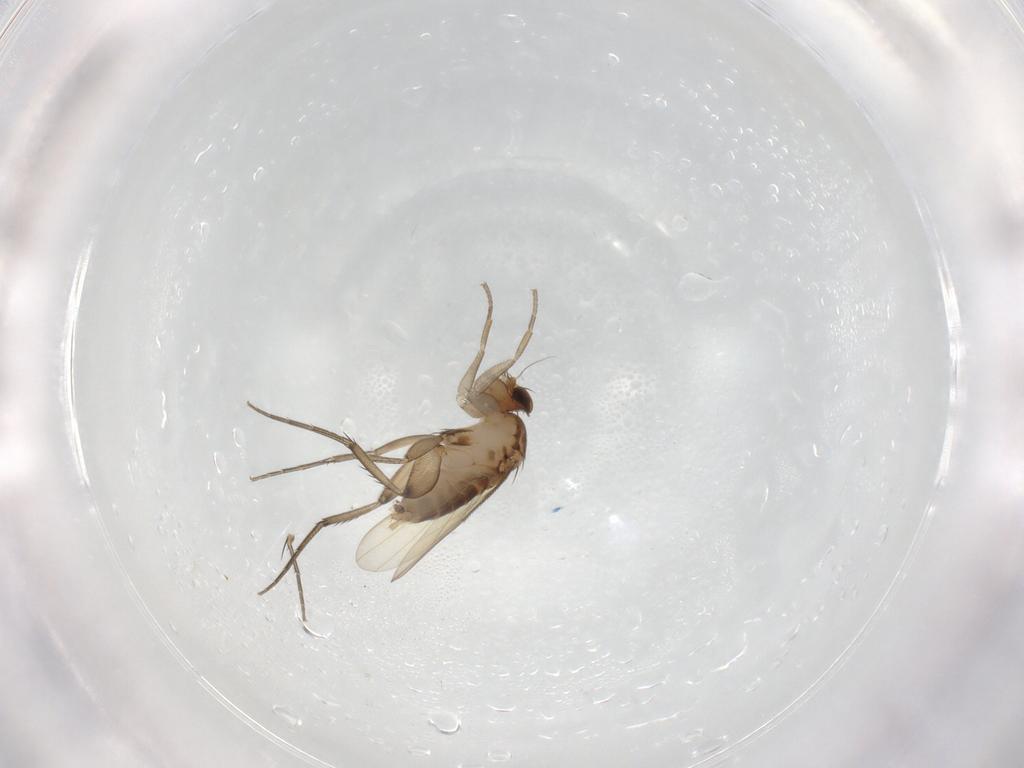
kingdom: Animalia
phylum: Arthropoda
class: Insecta
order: Diptera
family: Phoridae
